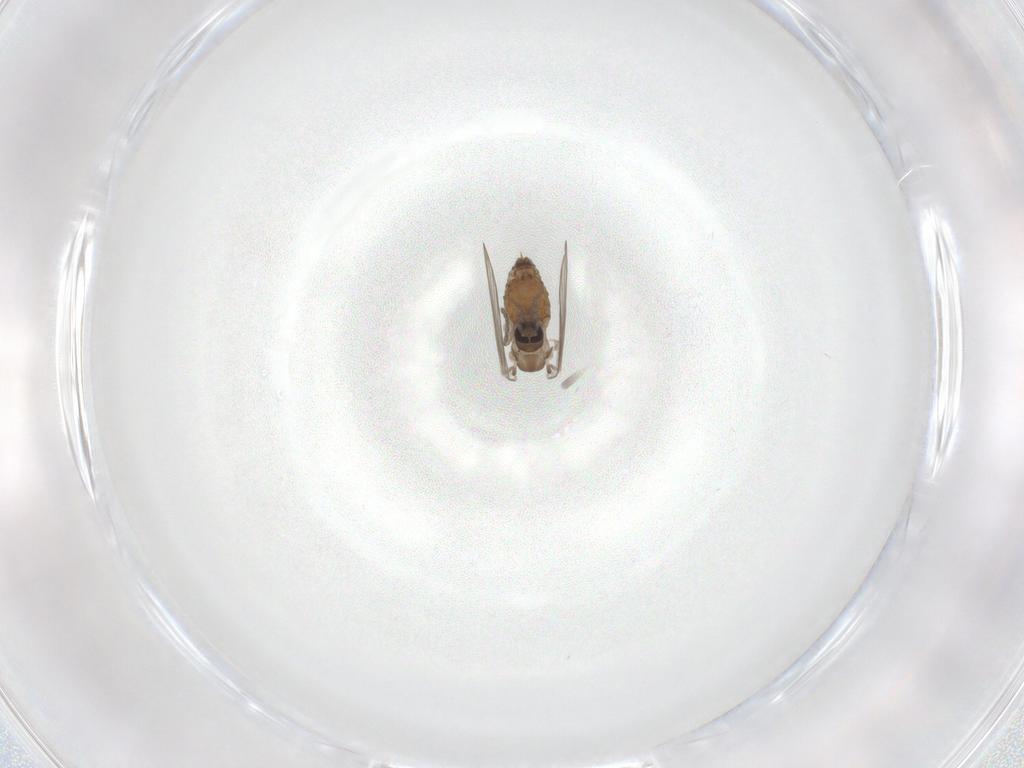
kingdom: Animalia
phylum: Arthropoda
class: Insecta
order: Diptera
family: Psychodidae
